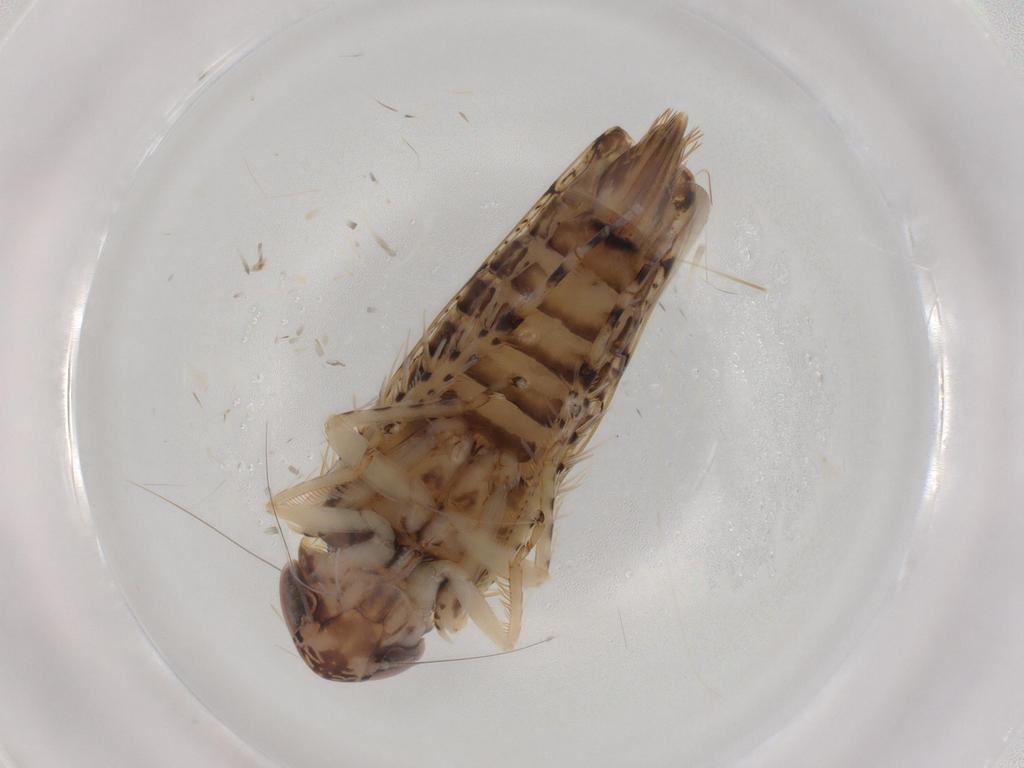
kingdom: Animalia
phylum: Arthropoda
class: Insecta
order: Hemiptera
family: Cicadellidae
